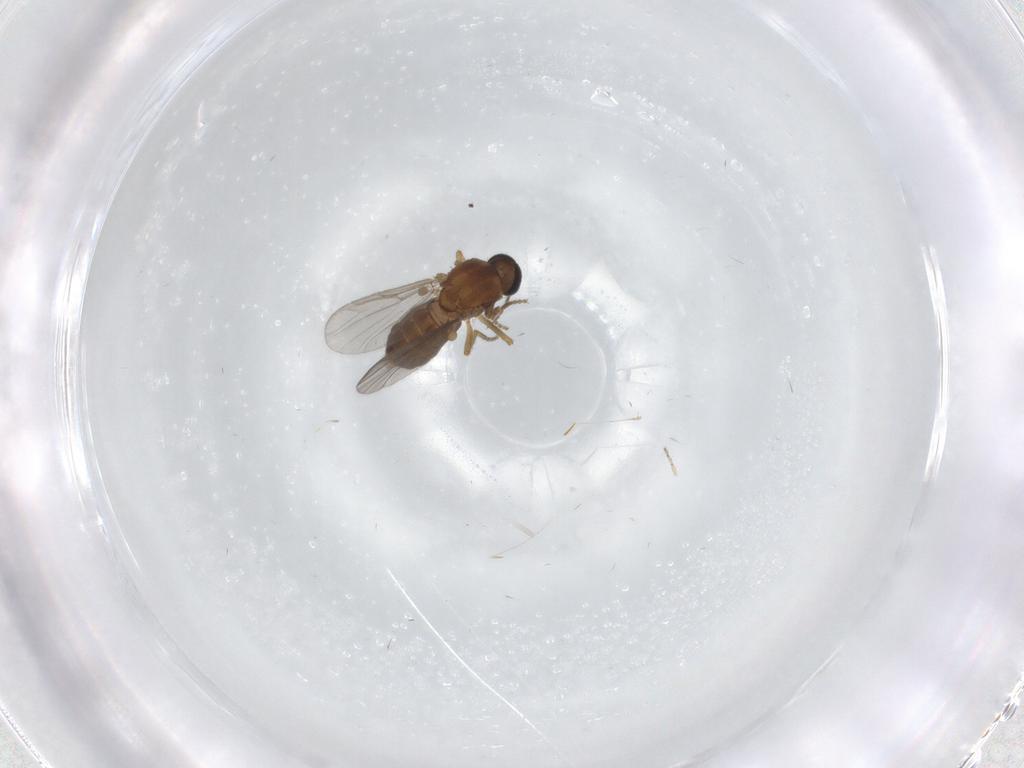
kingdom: Animalia
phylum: Arthropoda
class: Insecta
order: Diptera
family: Ceratopogonidae
